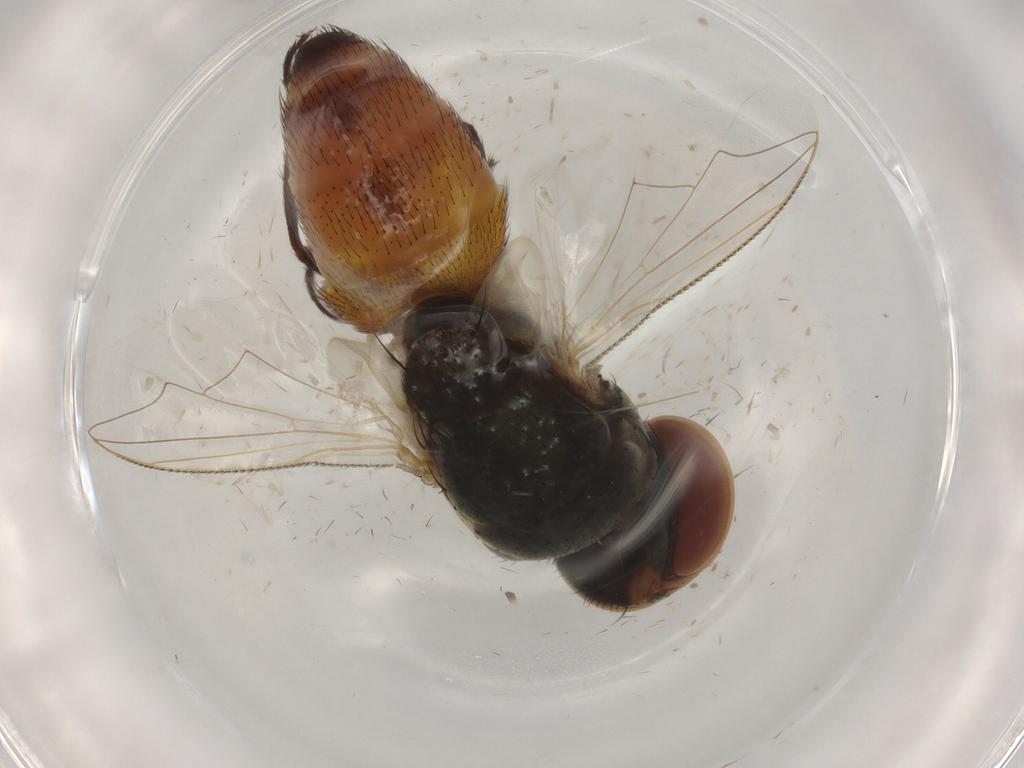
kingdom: Animalia
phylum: Arthropoda
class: Insecta
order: Diptera
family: Sarcophagidae
